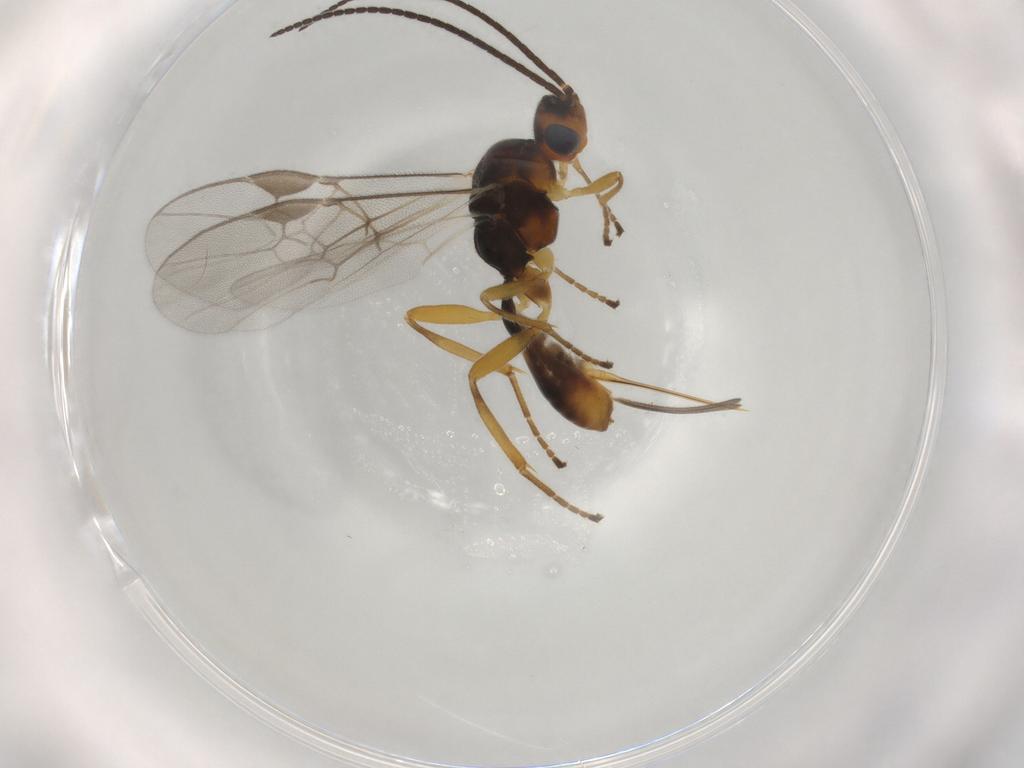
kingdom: Animalia
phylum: Arthropoda
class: Insecta
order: Hymenoptera
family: Braconidae
